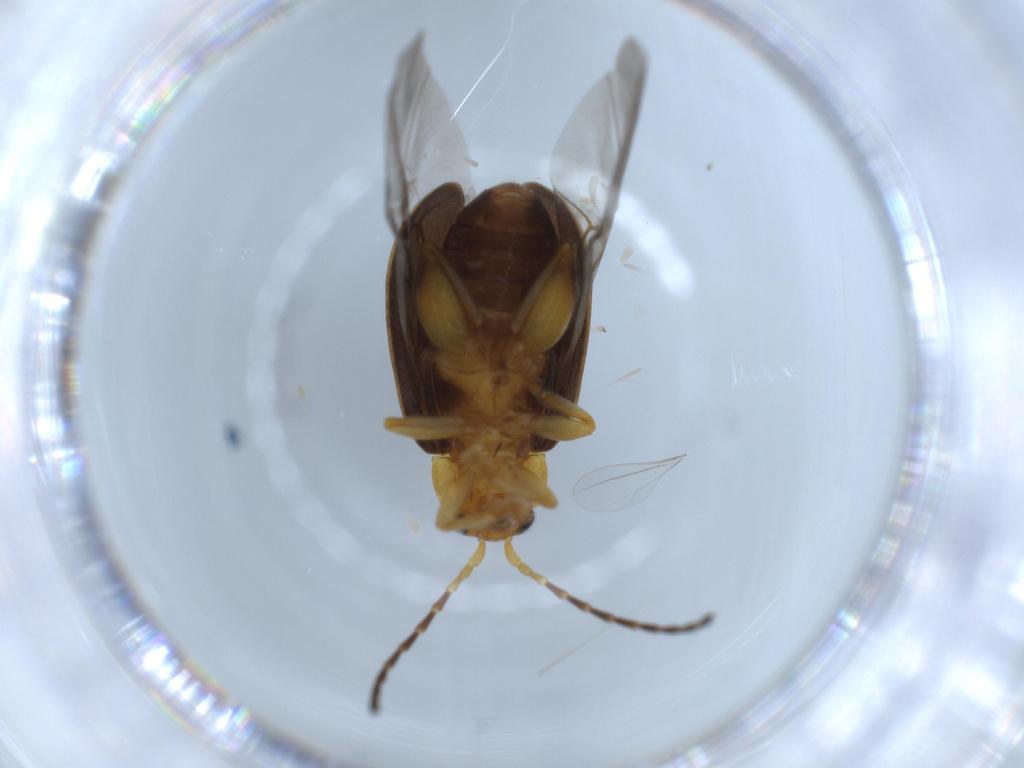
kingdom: Animalia
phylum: Arthropoda
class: Insecta
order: Coleoptera
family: Chrysomelidae
